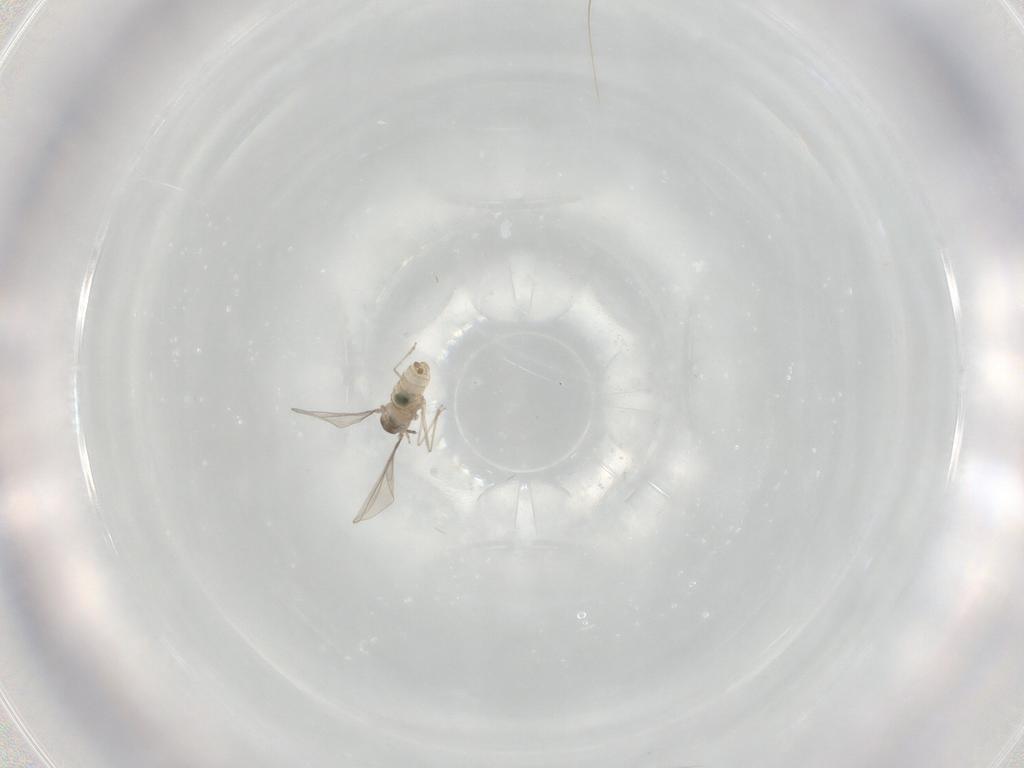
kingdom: Animalia
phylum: Arthropoda
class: Insecta
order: Diptera
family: Cecidomyiidae
